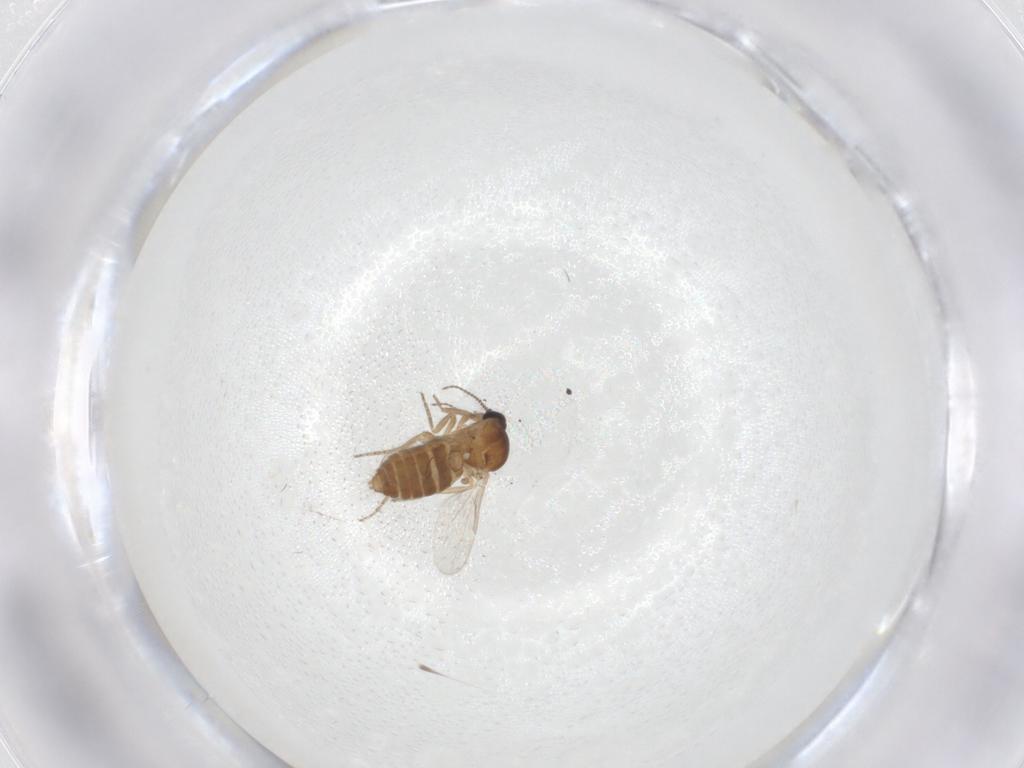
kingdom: Animalia
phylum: Arthropoda
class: Insecta
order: Diptera
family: Ceratopogonidae
